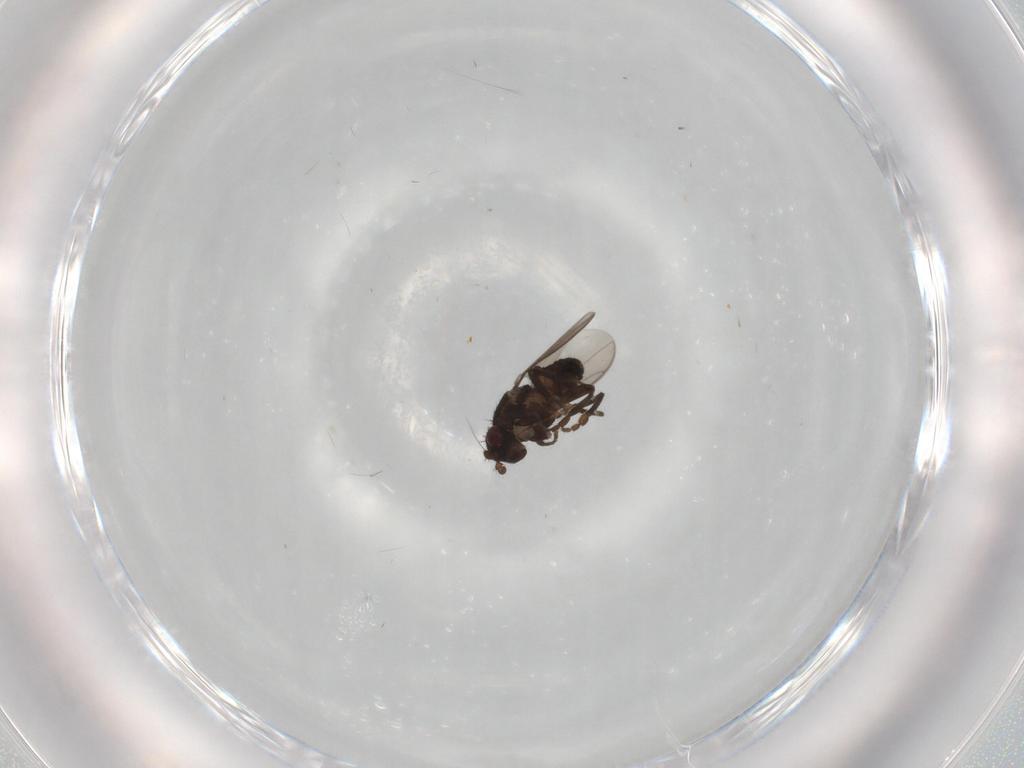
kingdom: Animalia
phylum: Arthropoda
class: Insecta
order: Diptera
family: Sphaeroceridae
